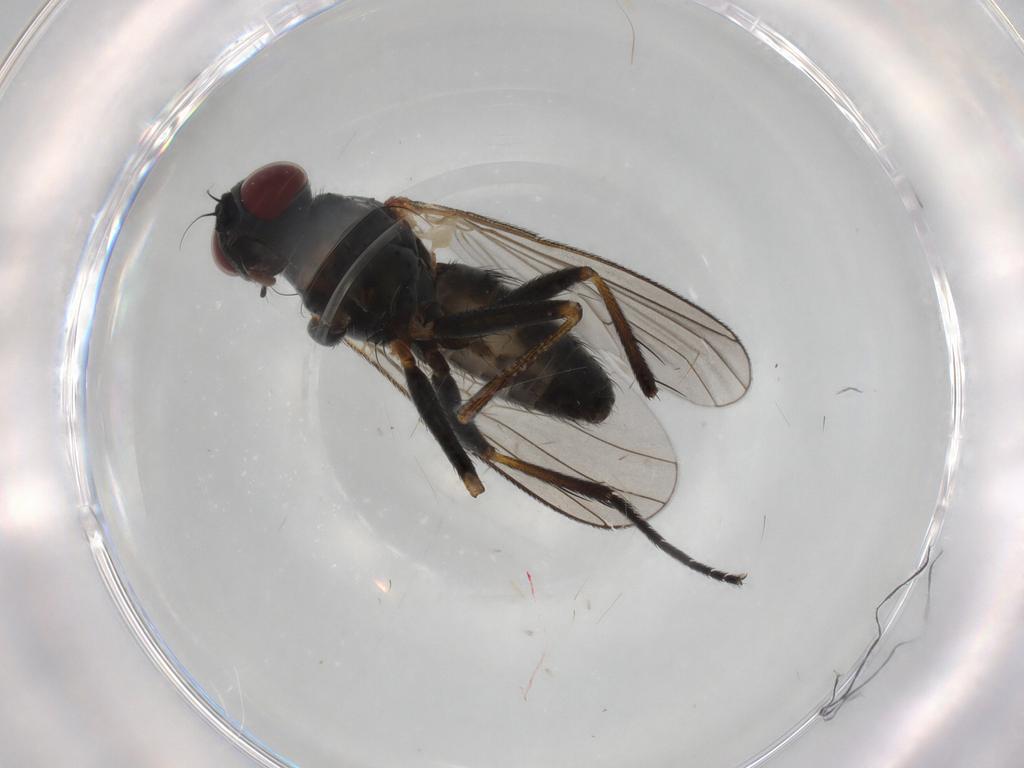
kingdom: Animalia
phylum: Arthropoda
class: Insecta
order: Diptera
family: Muscidae
